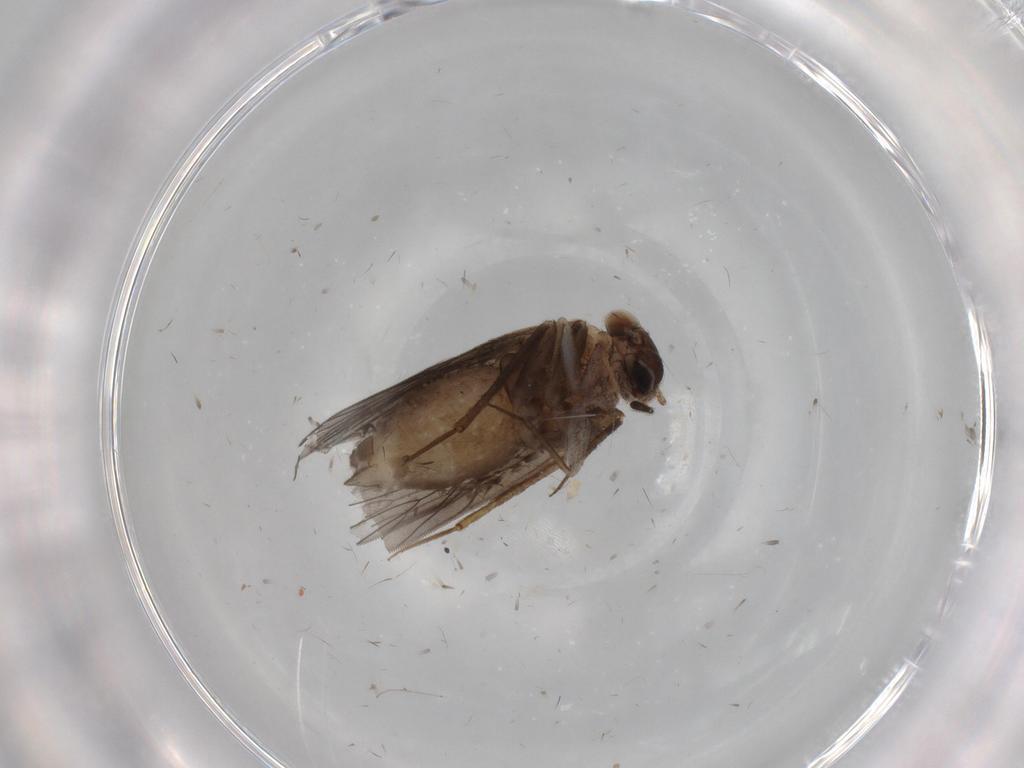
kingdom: Animalia
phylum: Arthropoda
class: Insecta
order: Psocodea
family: Lepidopsocidae
